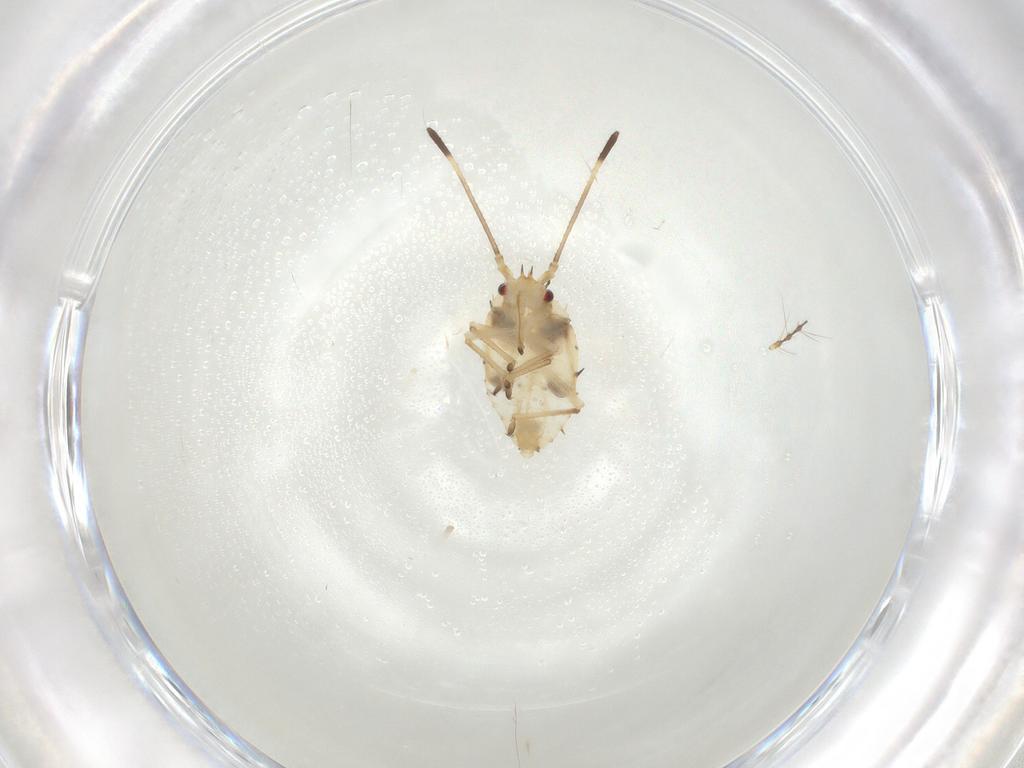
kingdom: Animalia
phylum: Arthropoda
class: Insecta
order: Hemiptera
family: Tingidae
